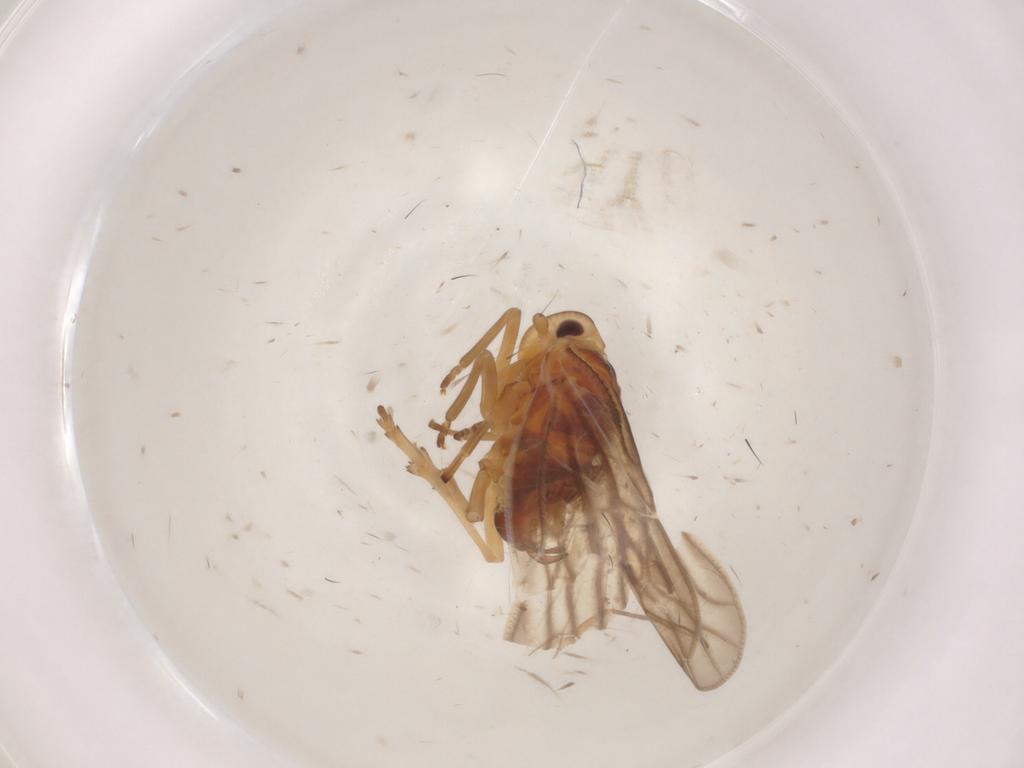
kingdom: Animalia
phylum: Arthropoda
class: Insecta
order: Hemiptera
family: Meenoplidae
